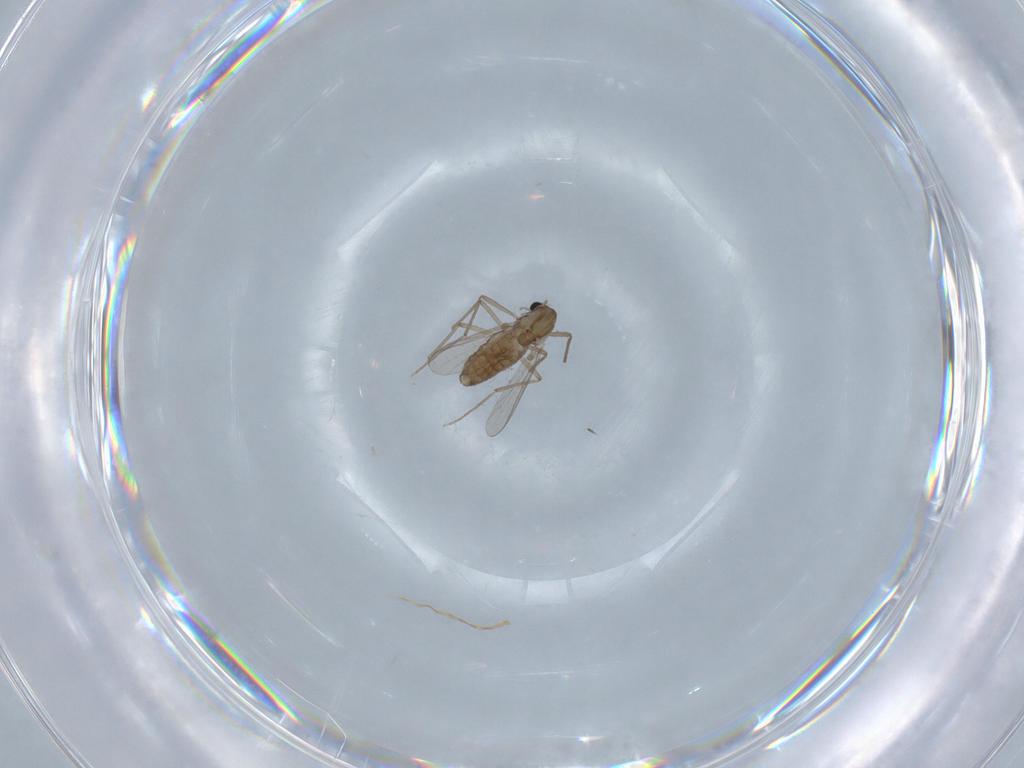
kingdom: Animalia
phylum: Arthropoda
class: Insecta
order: Diptera
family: Chironomidae
